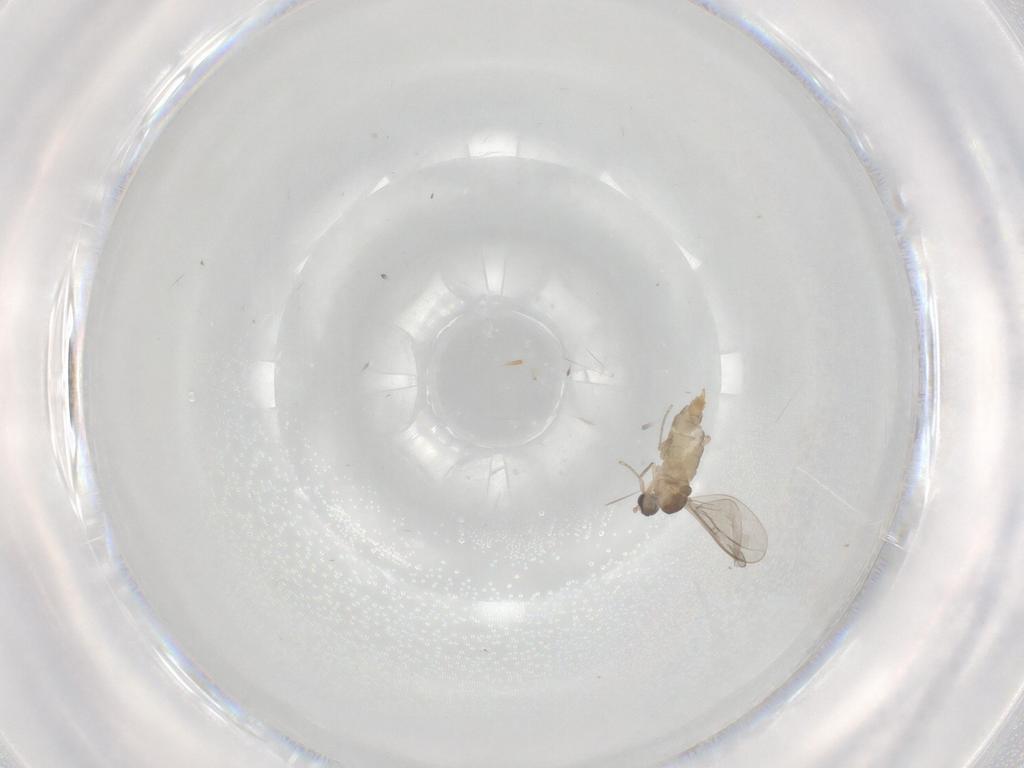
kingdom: Animalia
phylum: Arthropoda
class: Insecta
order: Diptera
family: Cecidomyiidae
